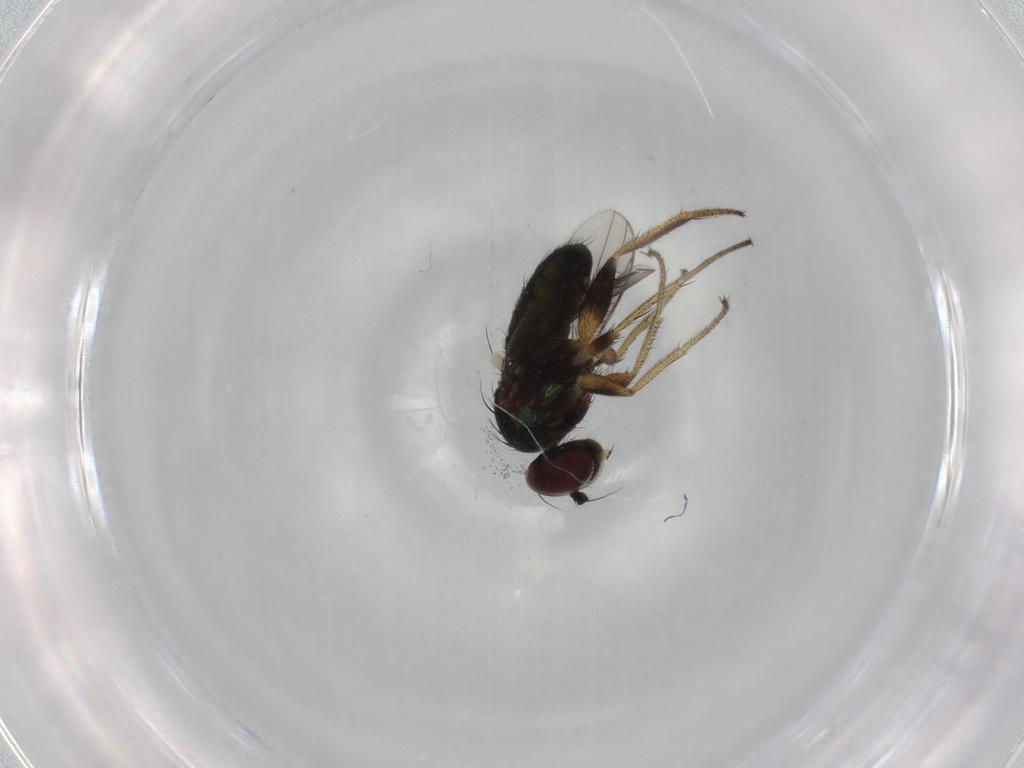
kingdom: Animalia
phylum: Arthropoda
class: Insecta
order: Diptera
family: Dolichopodidae
